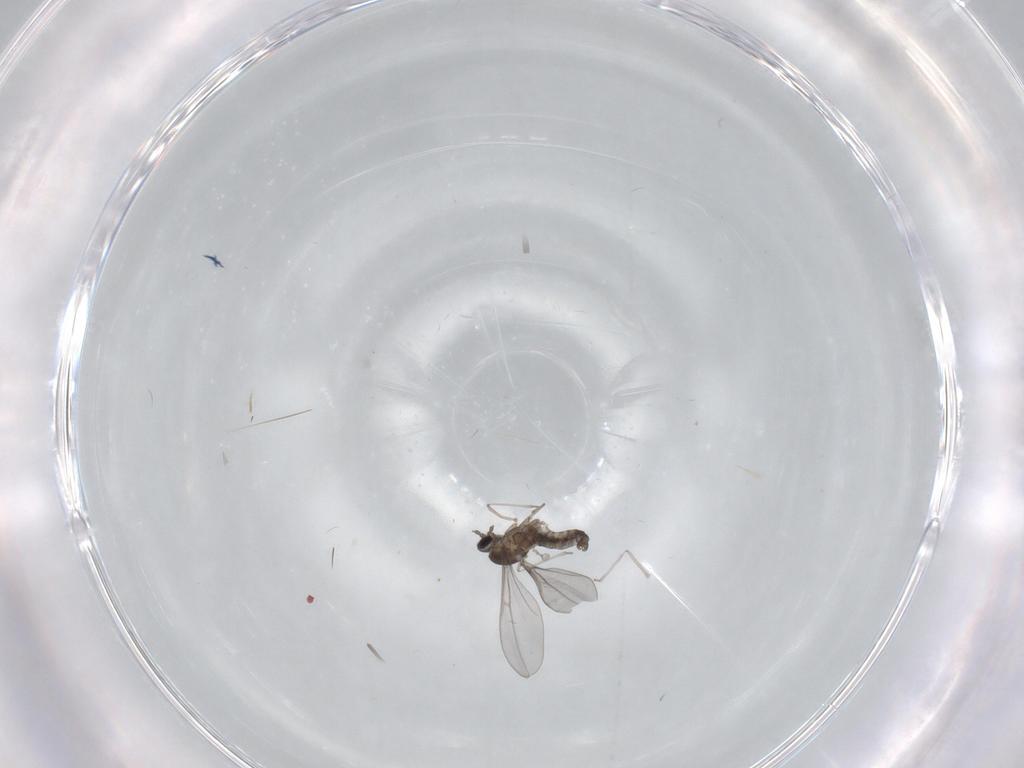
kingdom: Animalia
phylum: Arthropoda
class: Insecta
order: Diptera
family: Cecidomyiidae
